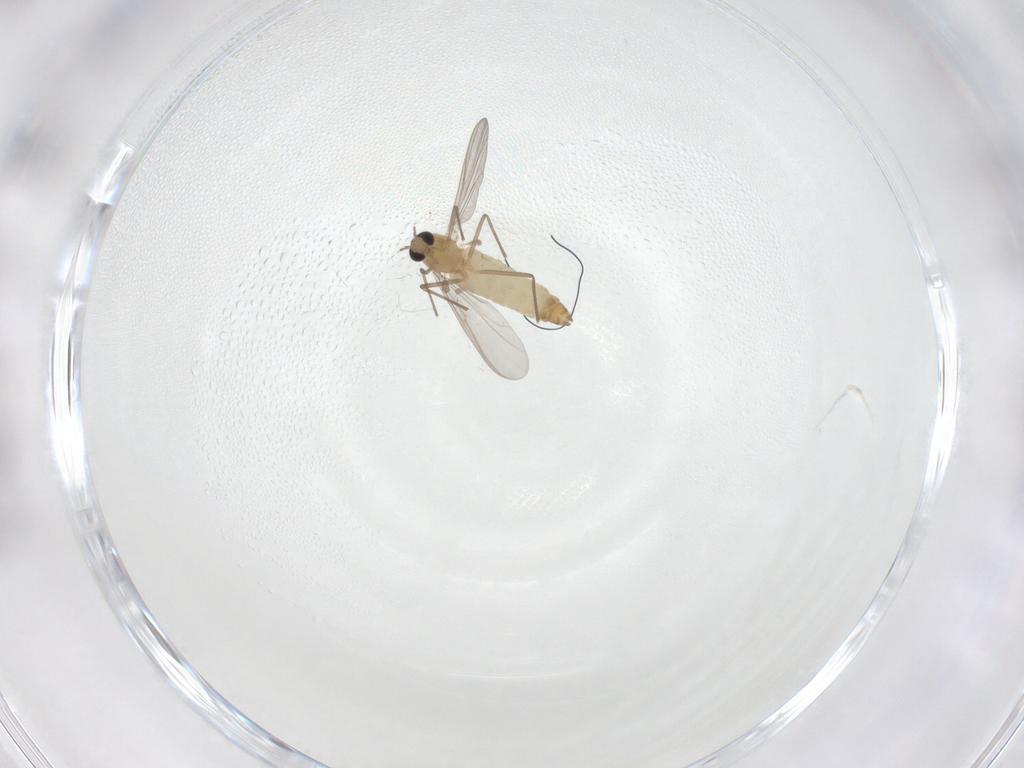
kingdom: Animalia
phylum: Arthropoda
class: Insecta
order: Diptera
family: Chironomidae
